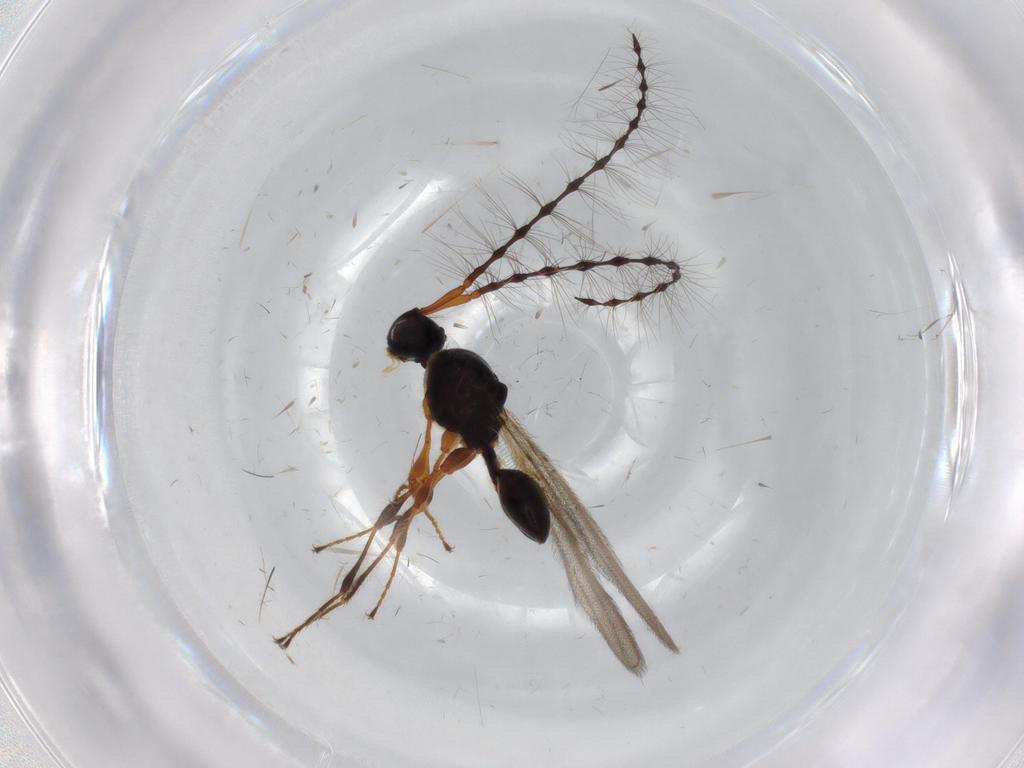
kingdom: Animalia
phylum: Arthropoda
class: Insecta
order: Hymenoptera
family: Diapriidae
